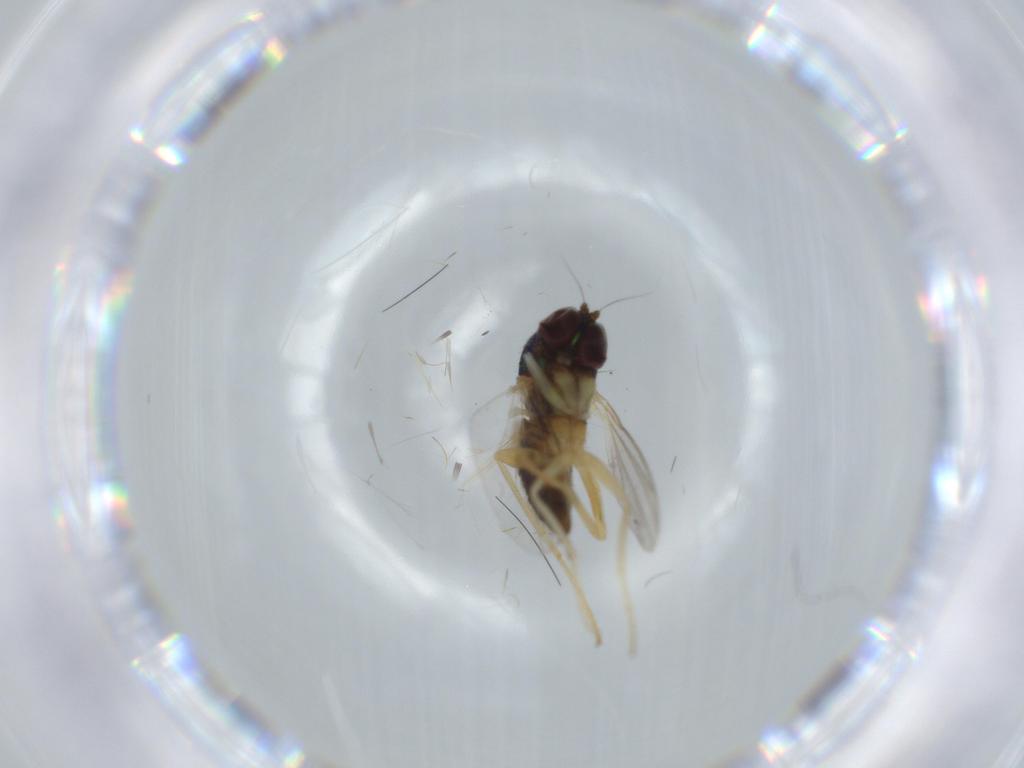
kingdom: Animalia
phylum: Arthropoda
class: Insecta
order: Diptera
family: Dolichopodidae
